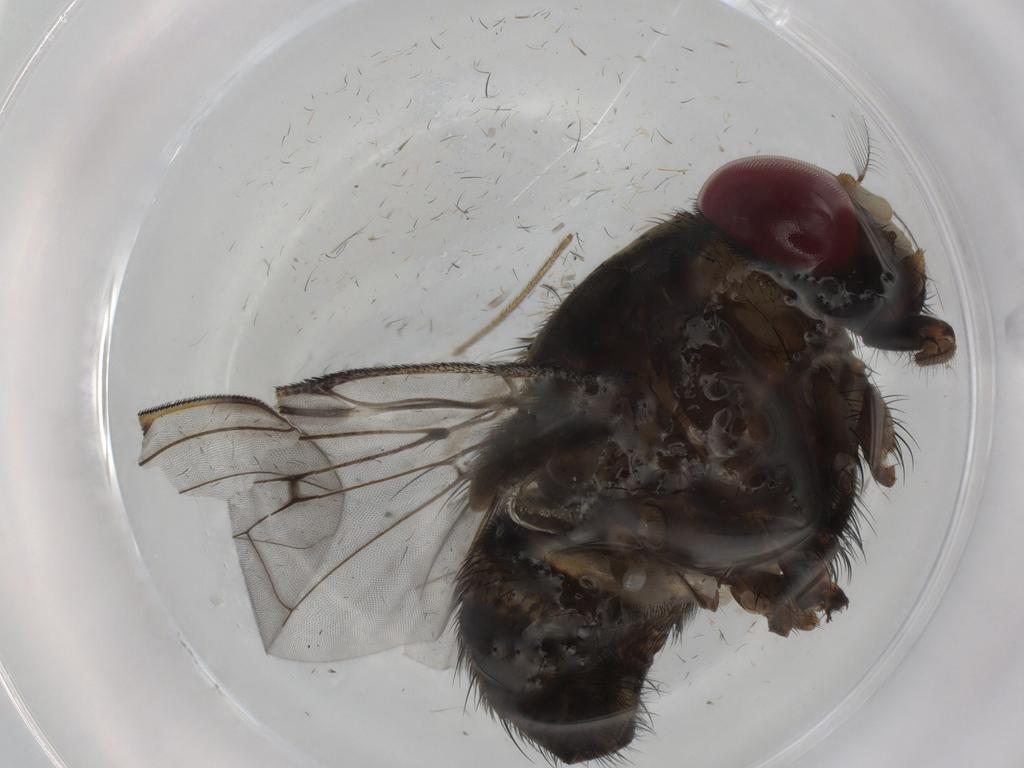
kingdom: Animalia
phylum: Arthropoda
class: Insecta
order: Diptera
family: Muscidae
